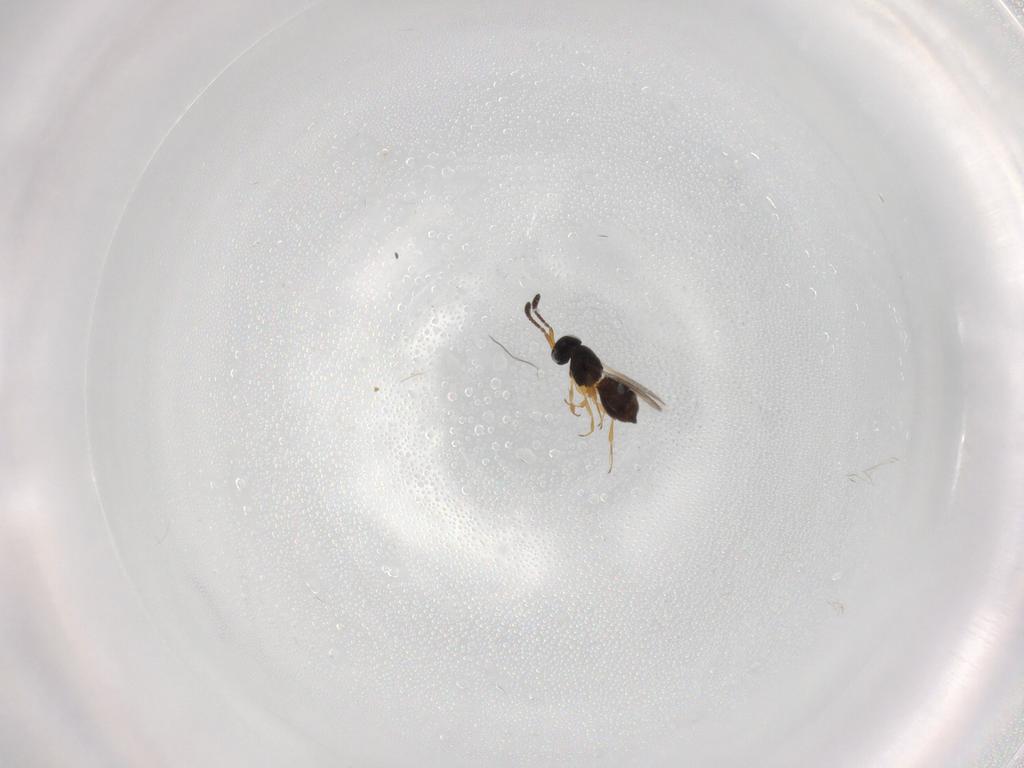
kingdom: Animalia
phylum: Arthropoda
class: Insecta
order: Hymenoptera
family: Scelionidae
